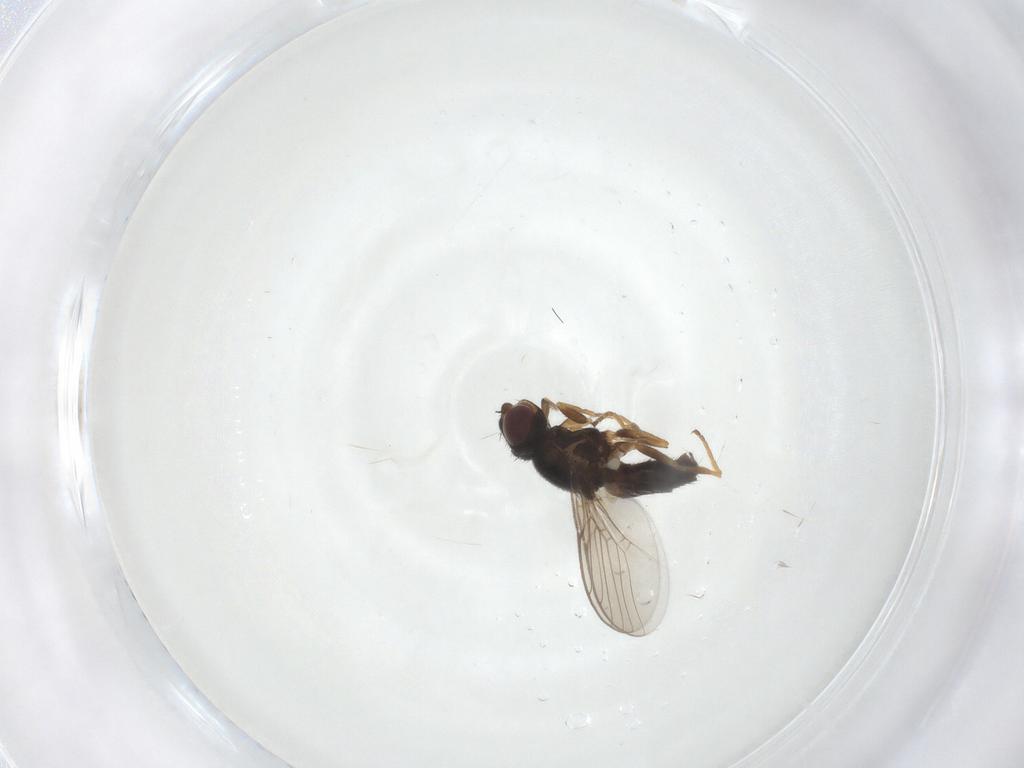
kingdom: Animalia
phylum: Arthropoda
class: Insecta
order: Diptera
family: Chloropidae
